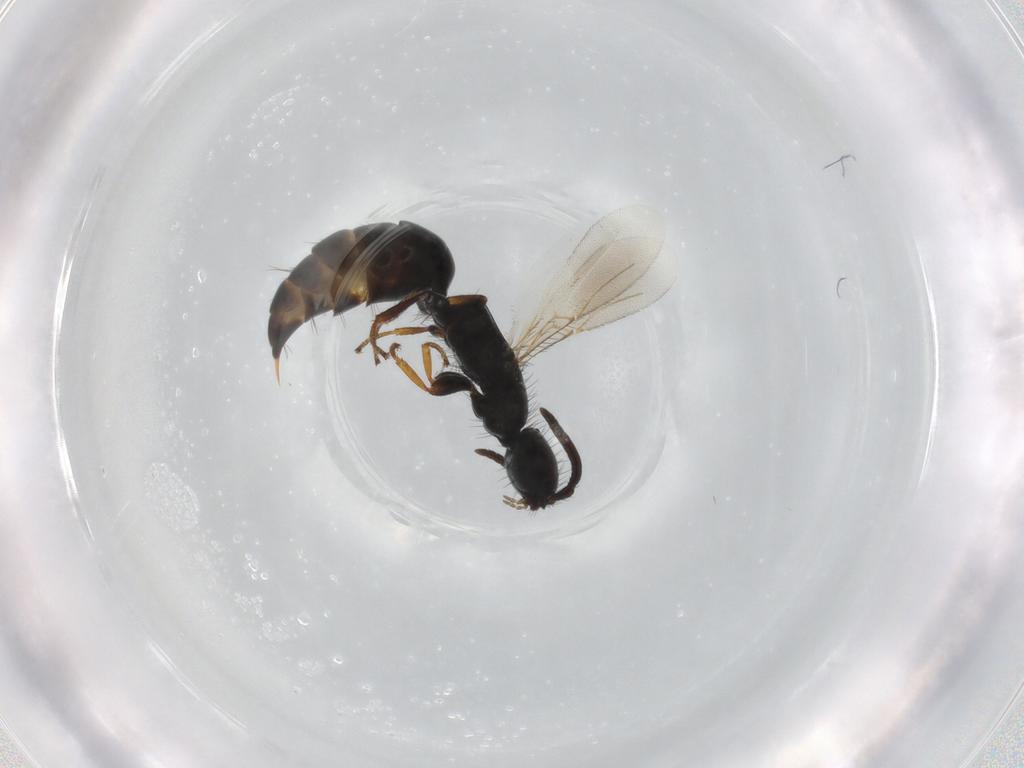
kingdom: Animalia
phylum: Arthropoda
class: Insecta
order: Hymenoptera
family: Bethylidae
